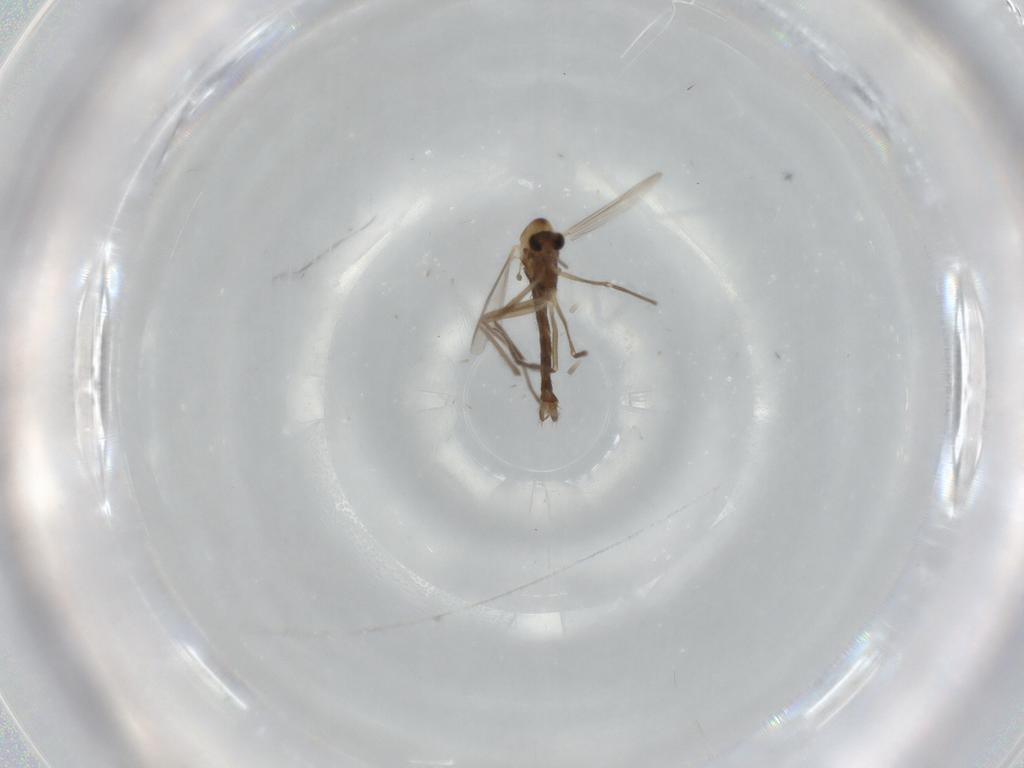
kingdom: Animalia
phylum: Arthropoda
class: Insecta
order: Diptera
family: Chironomidae
